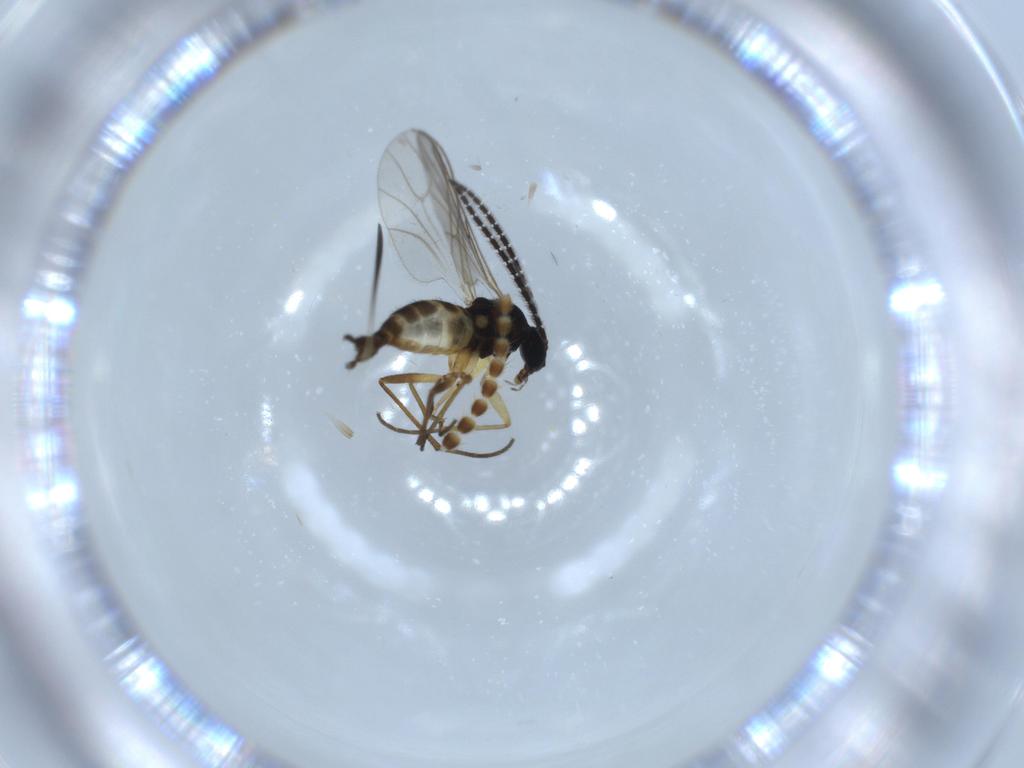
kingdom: Animalia
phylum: Arthropoda
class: Insecta
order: Diptera
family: Sciaridae
